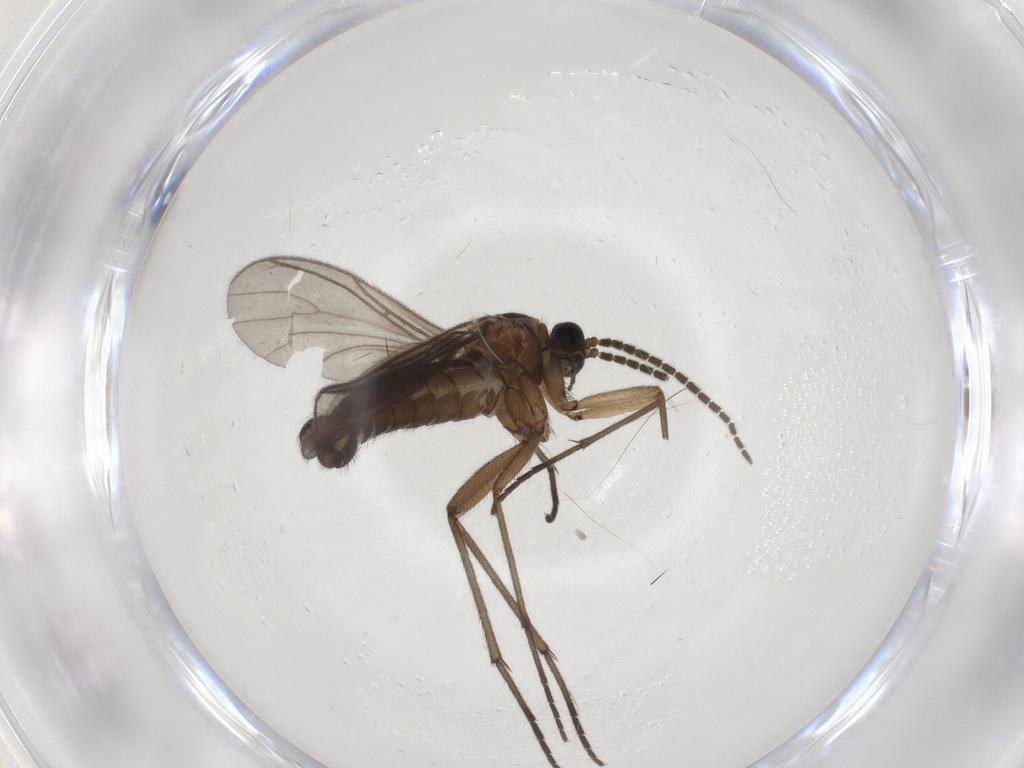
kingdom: Animalia
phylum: Arthropoda
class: Insecta
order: Diptera
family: Sciaridae
